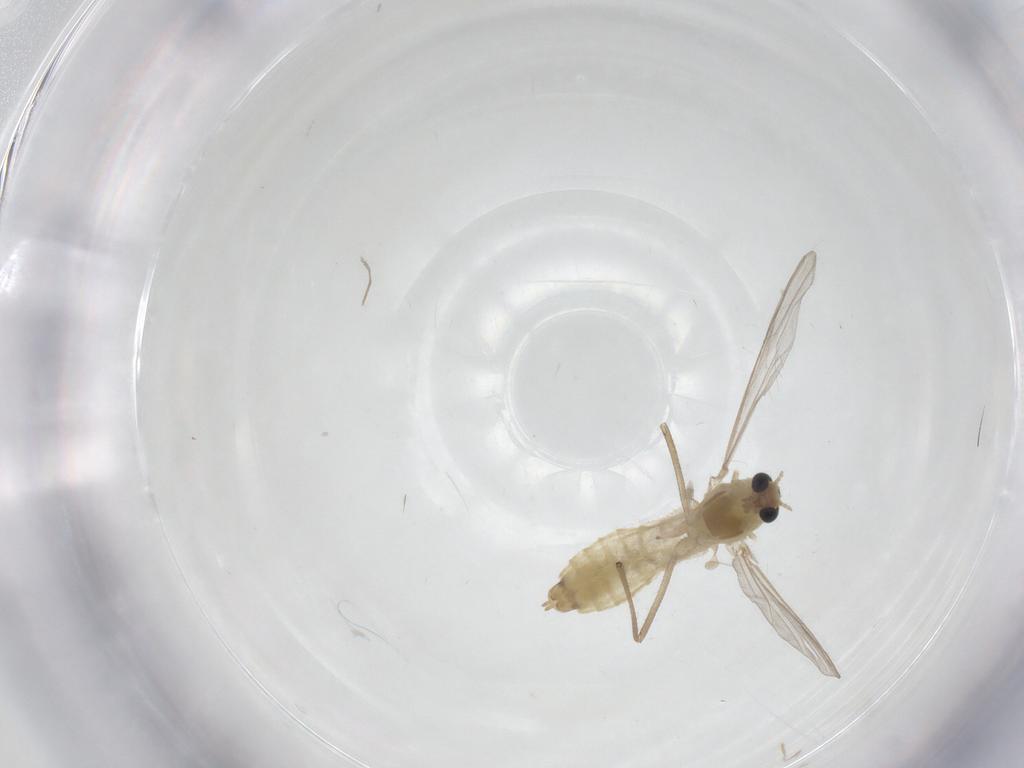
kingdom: Animalia
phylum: Arthropoda
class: Insecta
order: Diptera
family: Chironomidae
